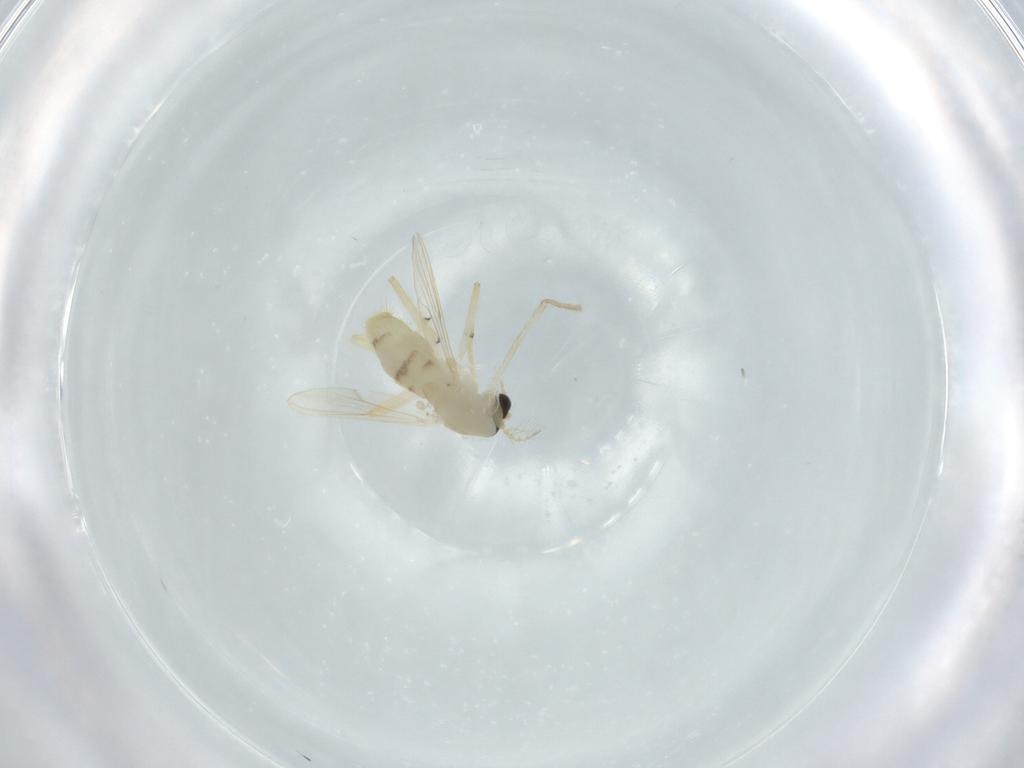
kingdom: Animalia
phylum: Arthropoda
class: Insecta
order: Diptera
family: Chironomidae
